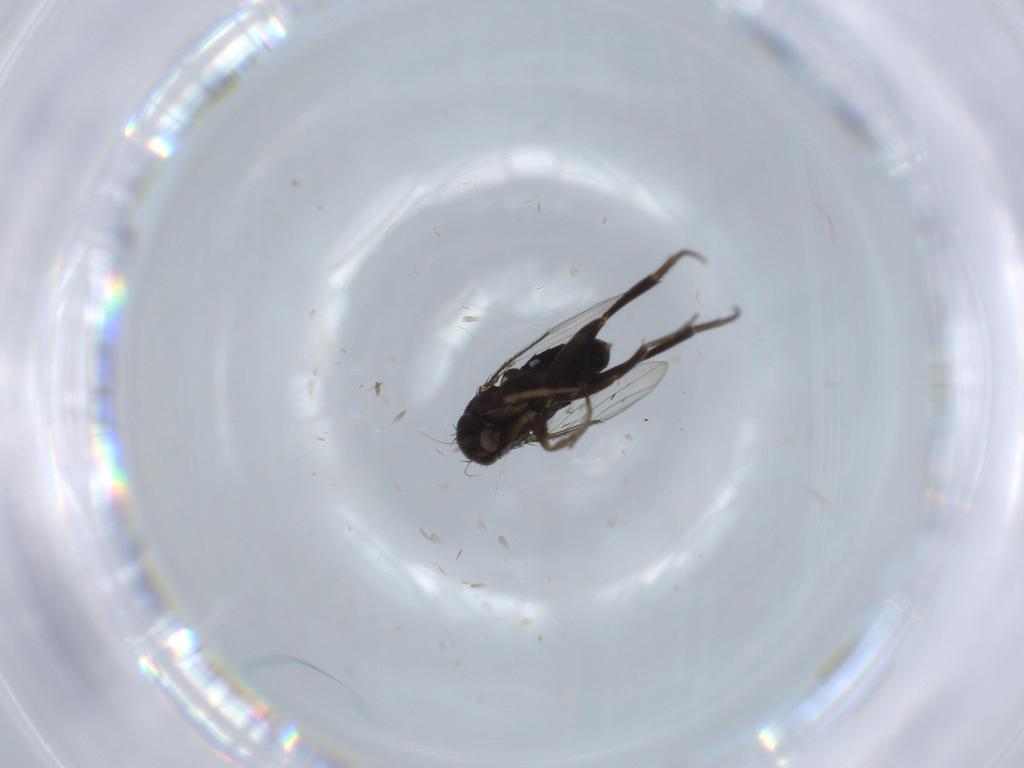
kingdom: Animalia
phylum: Arthropoda
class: Insecta
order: Diptera
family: Phoridae
